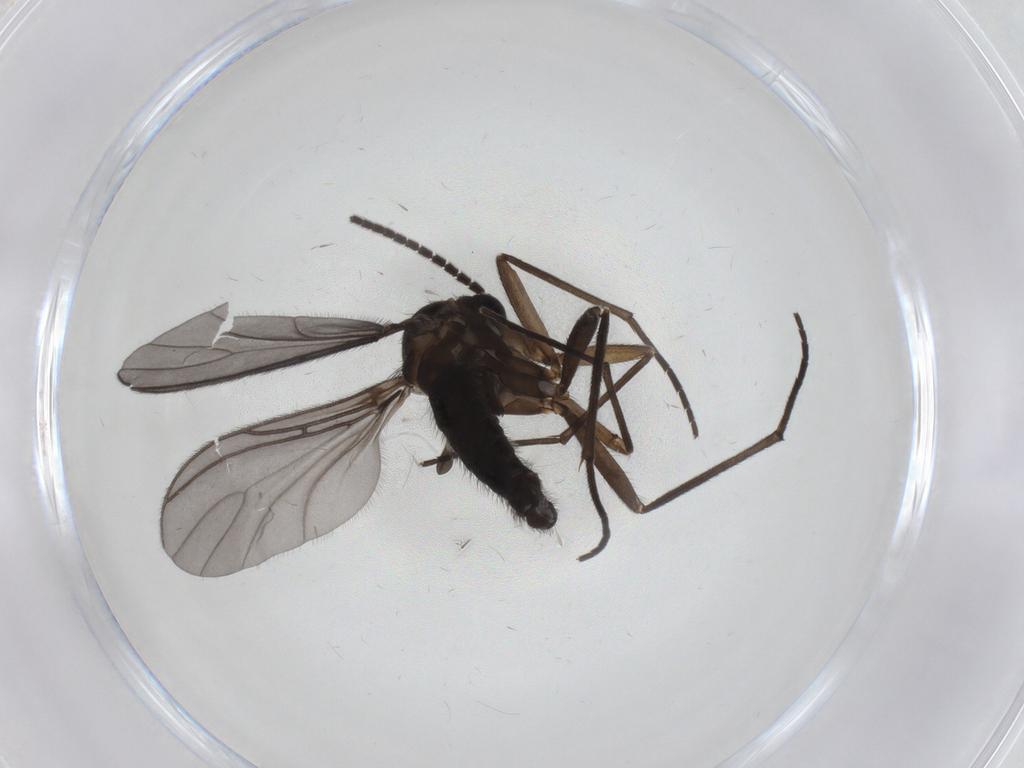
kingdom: Animalia
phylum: Arthropoda
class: Insecta
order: Diptera
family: Sciaridae
